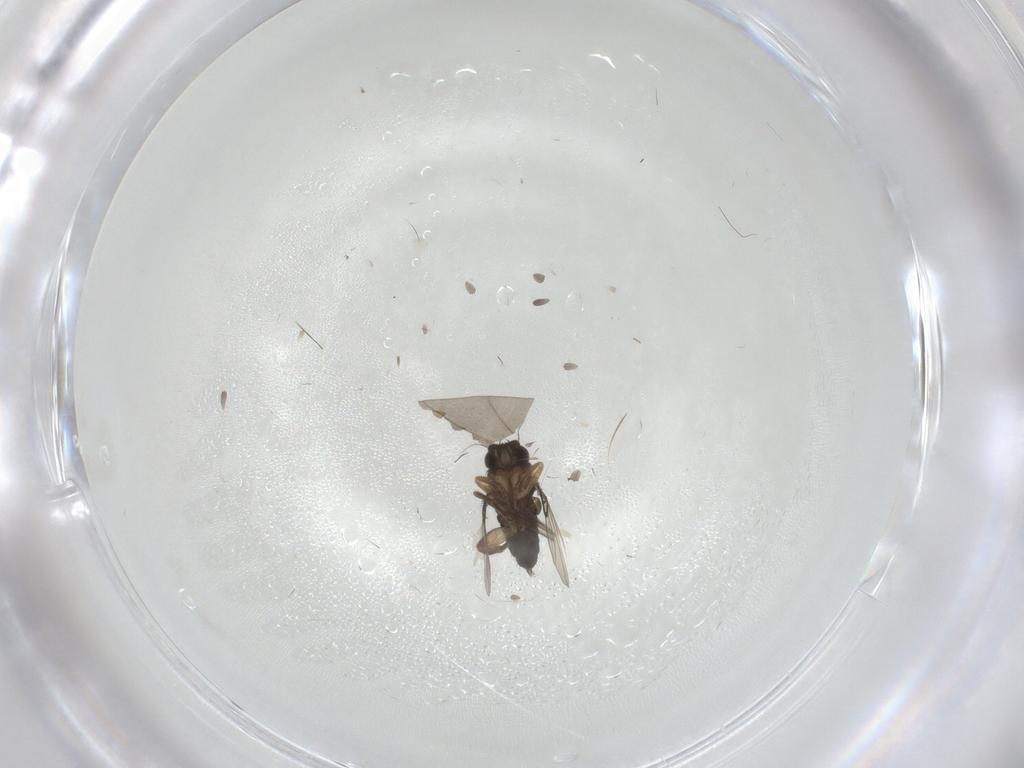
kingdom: Animalia
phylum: Arthropoda
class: Insecta
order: Diptera
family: Phoridae
